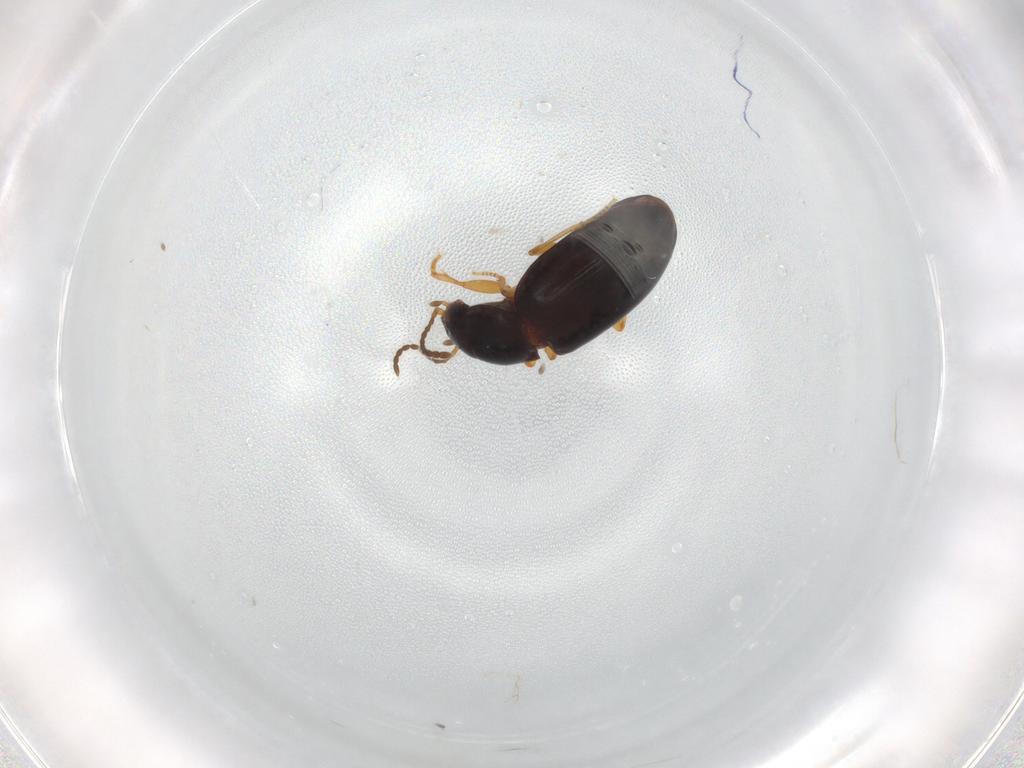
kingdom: Animalia
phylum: Arthropoda
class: Insecta
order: Coleoptera
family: Carabidae
